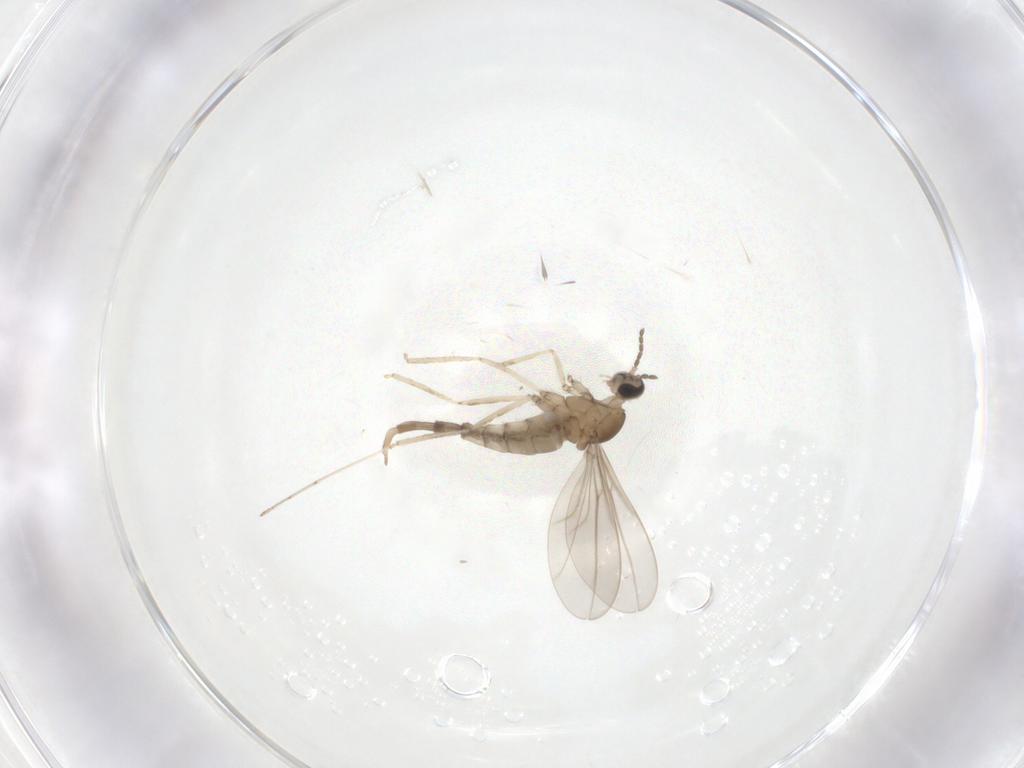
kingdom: Animalia
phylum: Arthropoda
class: Insecta
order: Diptera
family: Cecidomyiidae
